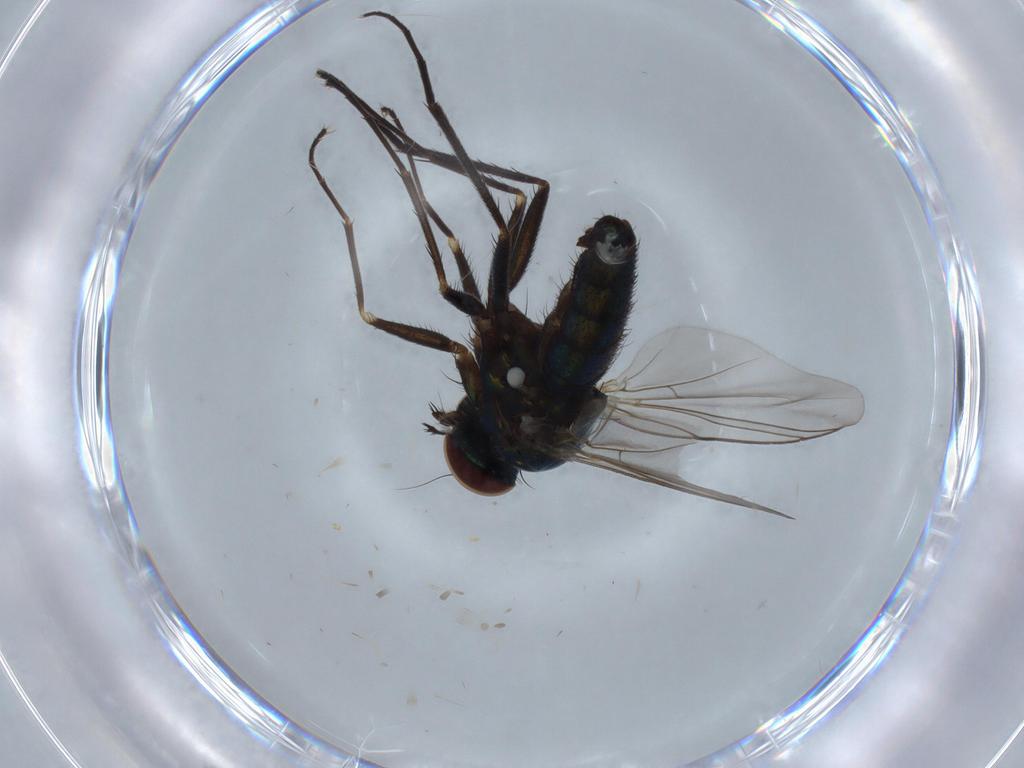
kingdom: Animalia
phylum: Arthropoda
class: Insecta
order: Diptera
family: Dolichopodidae
